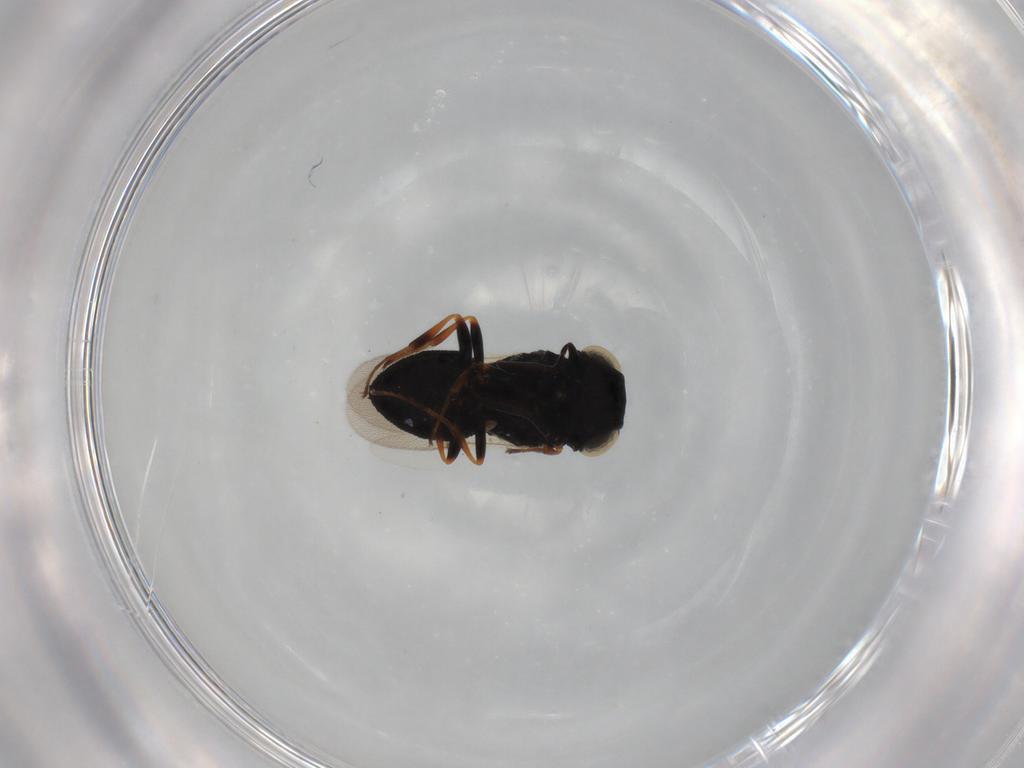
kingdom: Animalia
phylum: Arthropoda
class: Insecta
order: Hymenoptera
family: Scelionidae
